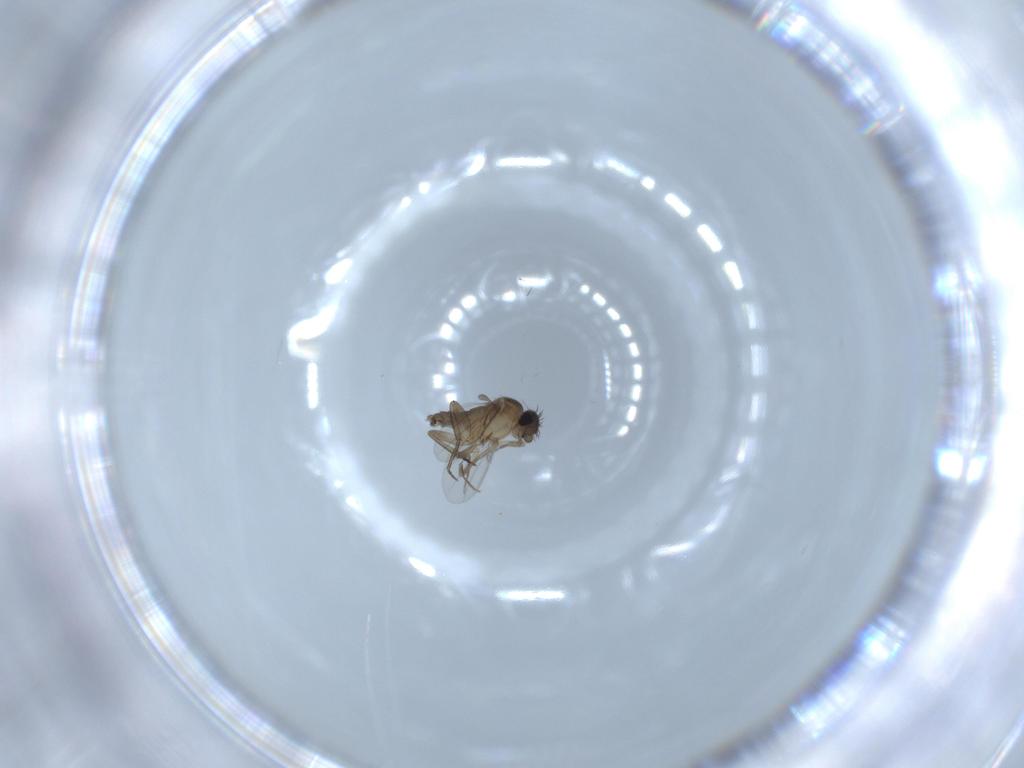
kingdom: Animalia
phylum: Arthropoda
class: Insecta
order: Diptera
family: Phoridae
